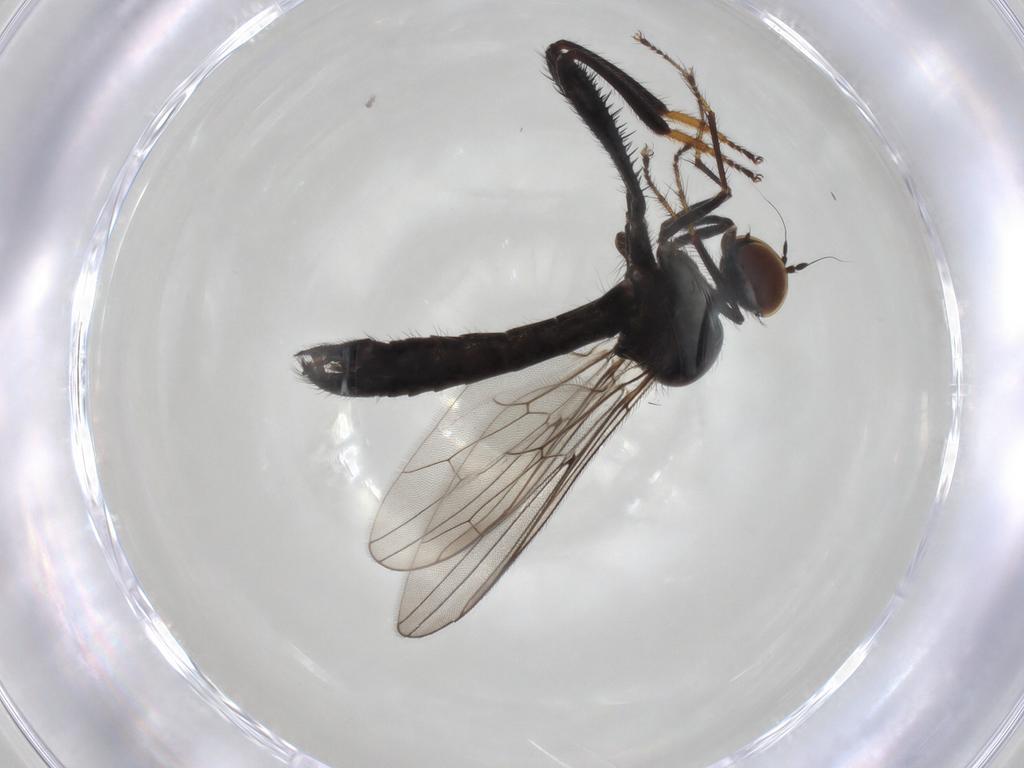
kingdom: Animalia
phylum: Arthropoda
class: Insecta
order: Diptera
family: Hybotidae
